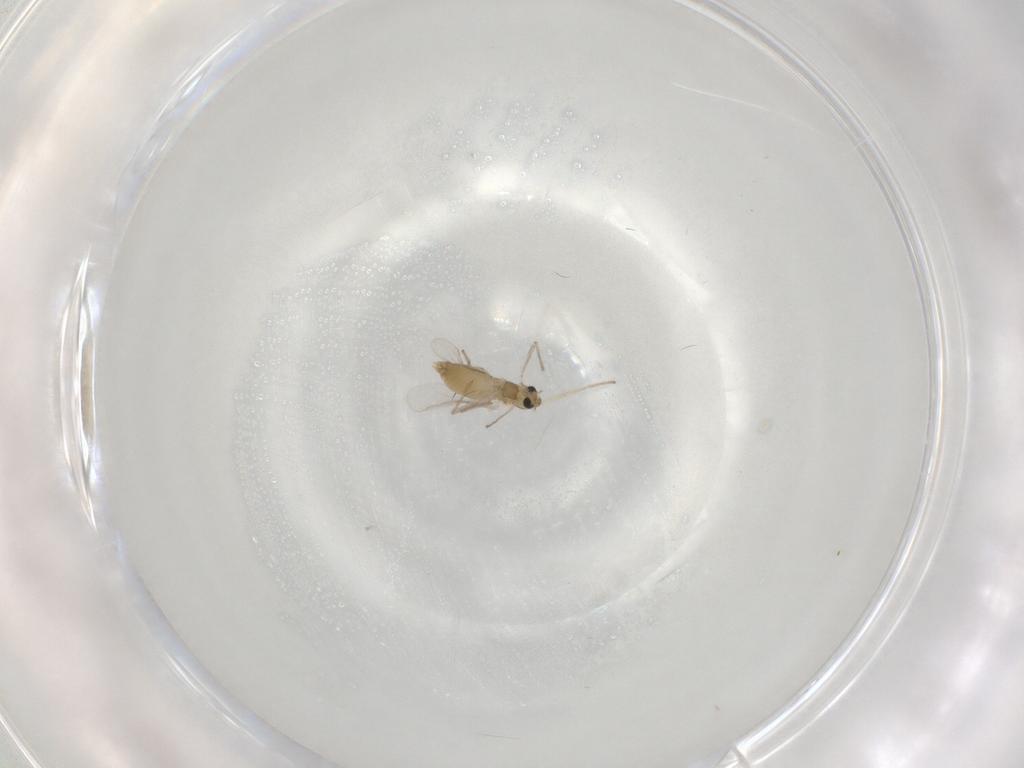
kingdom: Animalia
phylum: Arthropoda
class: Insecta
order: Diptera
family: Chironomidae
